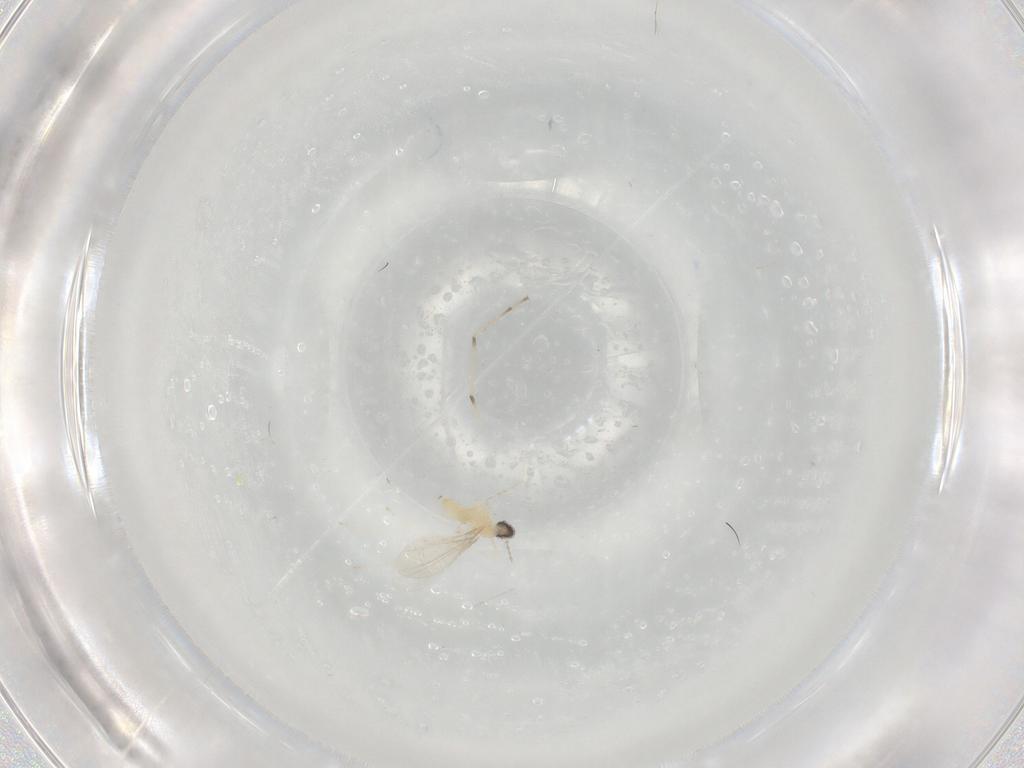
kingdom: Animalia
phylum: Arthropoda
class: Insecta
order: Diptera
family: Cecidomyiidae
